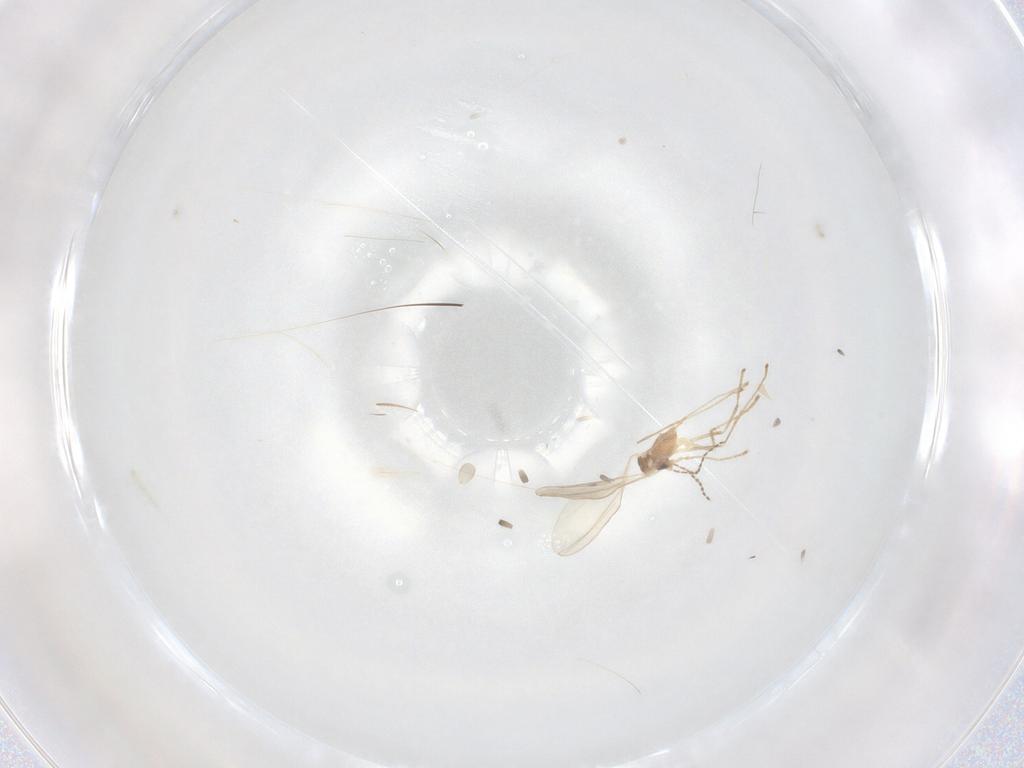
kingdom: Animalia
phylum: Arthropoda
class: Insecta
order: Diptera
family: Cecidomyiidae
